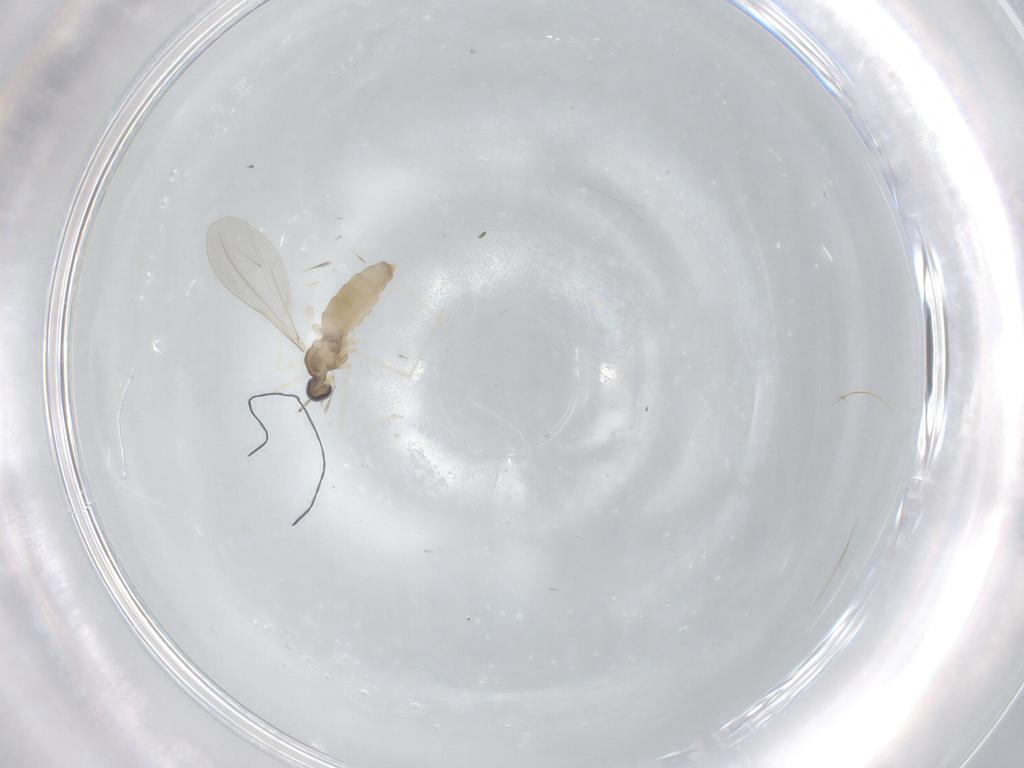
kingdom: Animalia
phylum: Arthropoda
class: Insecta
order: Diptera
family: Cecidomyiidae
